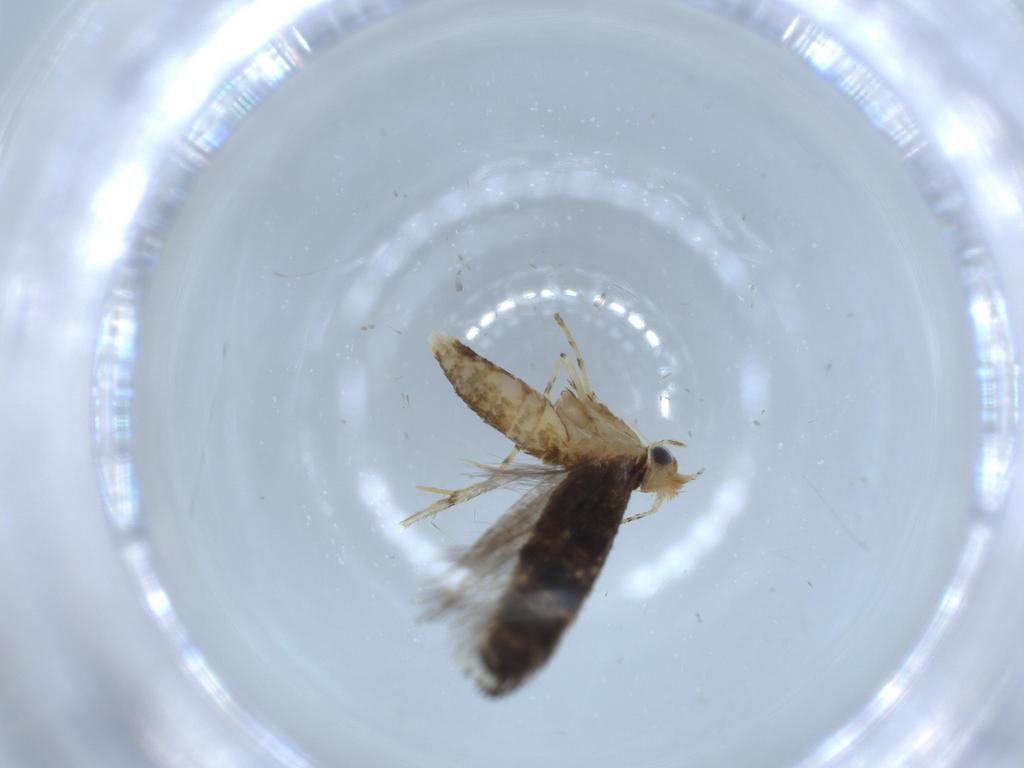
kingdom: Animalia
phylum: Arthropoda
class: Insecta
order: Lepidoptera
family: Argyresthiidae
